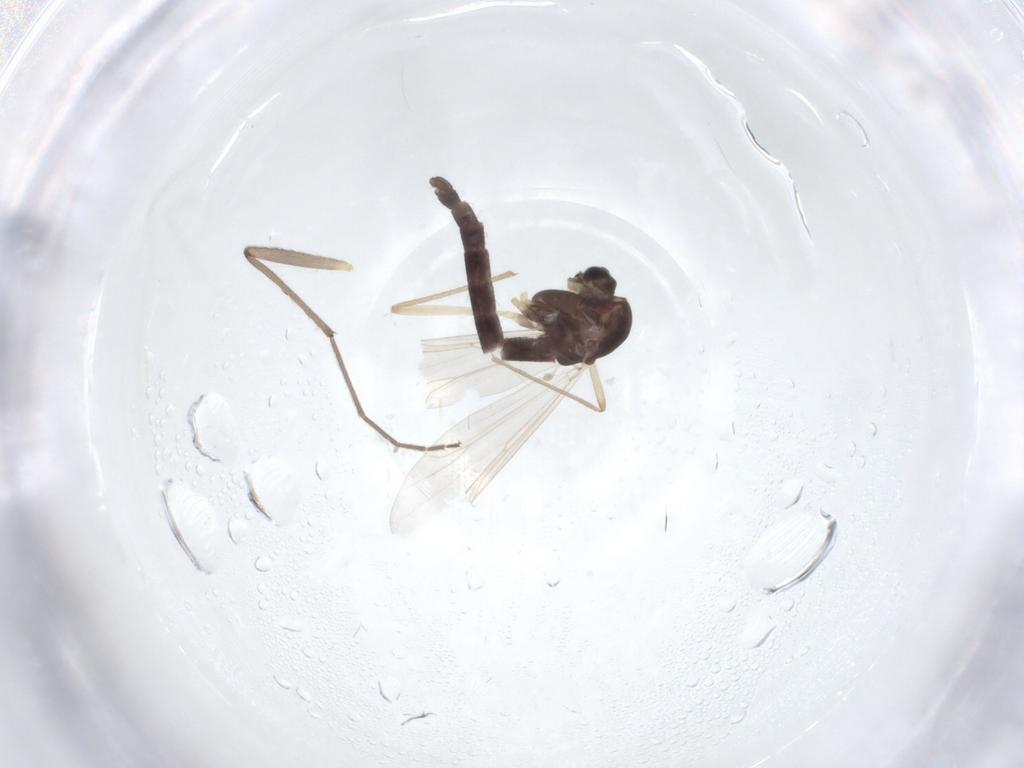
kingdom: Animalia
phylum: Arthropoda
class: Insecta
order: Diptera
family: Chironomidae
